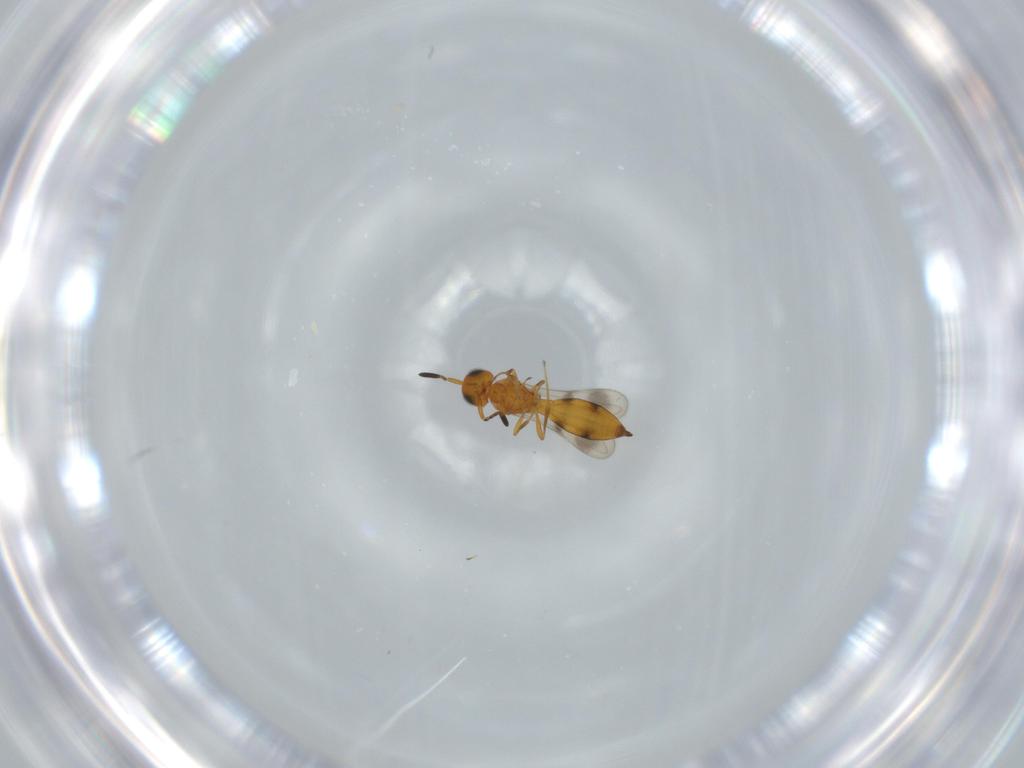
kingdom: Animalia
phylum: Arthropoda
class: Insecta
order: Hymenoptera
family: Scelionidae
